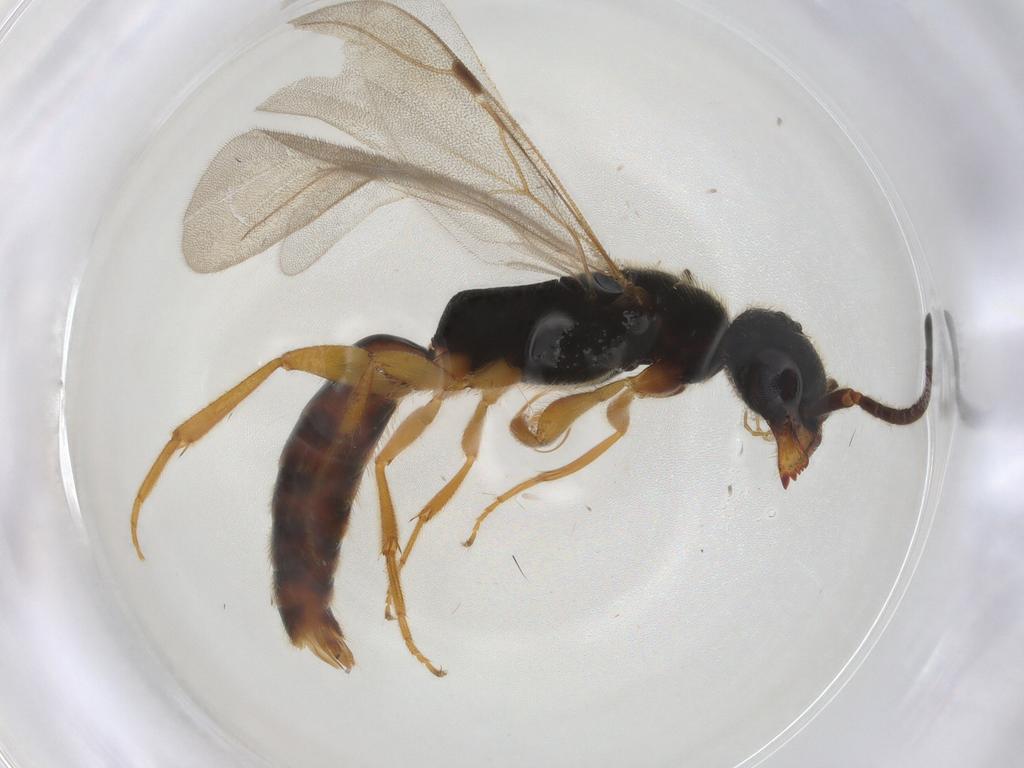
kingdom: Animalia
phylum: Arthropoda
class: Insecta
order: Hymenoptera
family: Bethylidae
